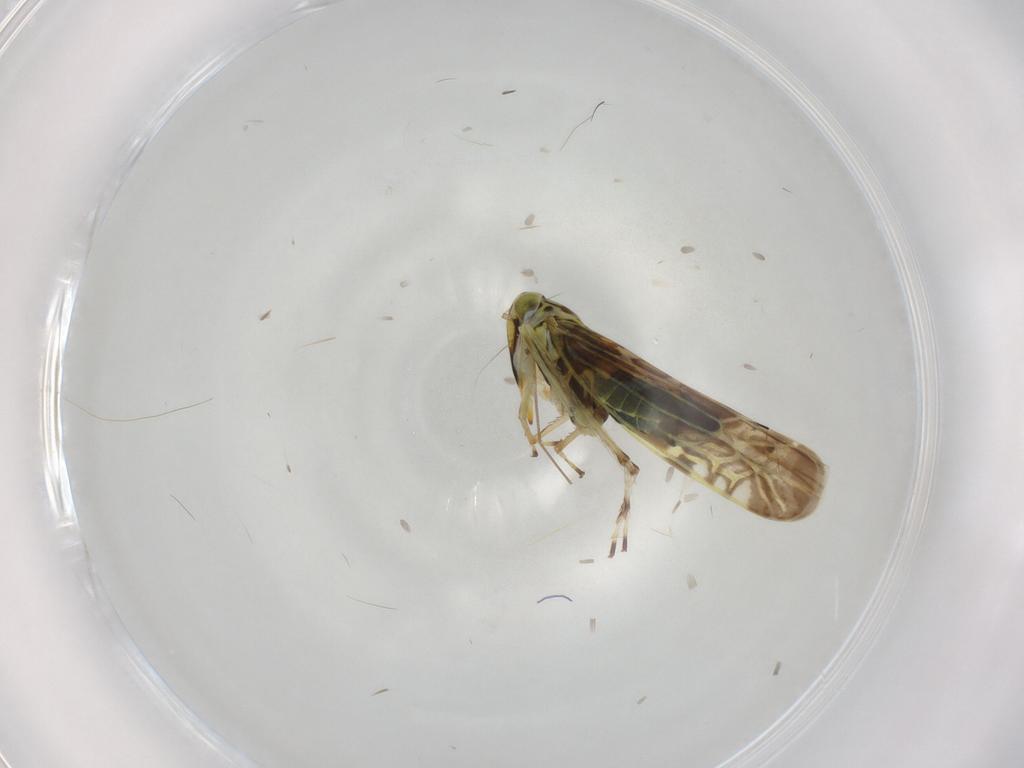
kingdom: Animalia
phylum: Arthropoda
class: Insecta
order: Hemiptera
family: Cicadellidae
